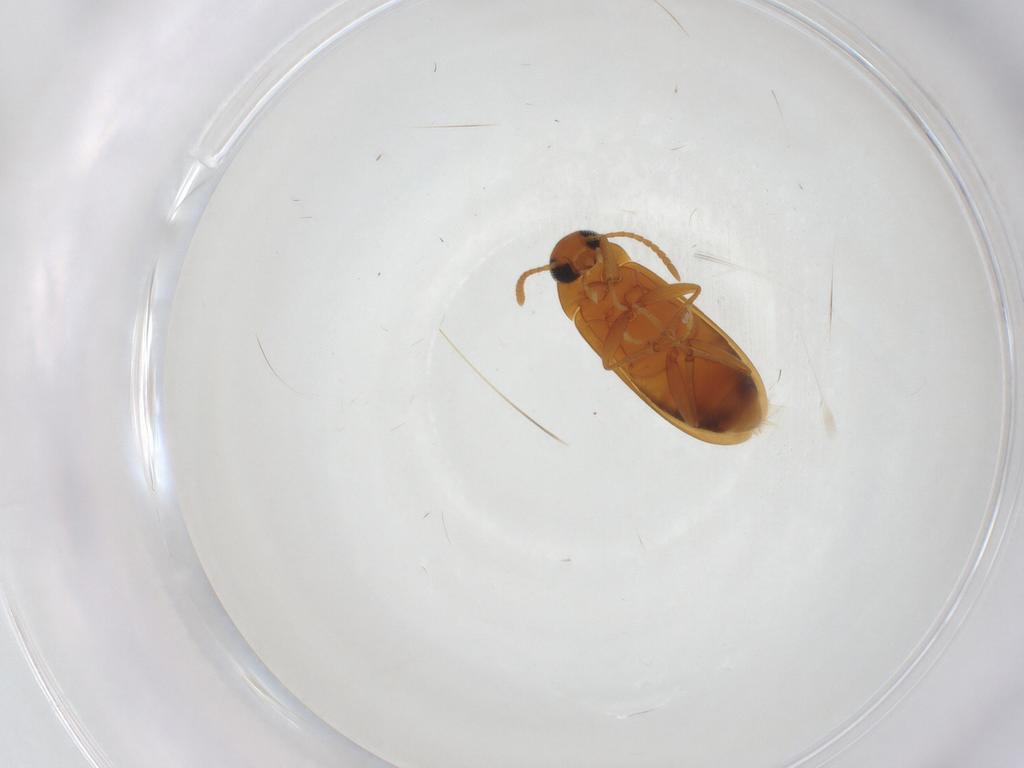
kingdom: Animalia
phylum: Arthropoda
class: Insecta
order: Coleoptera
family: Scraptiidae
